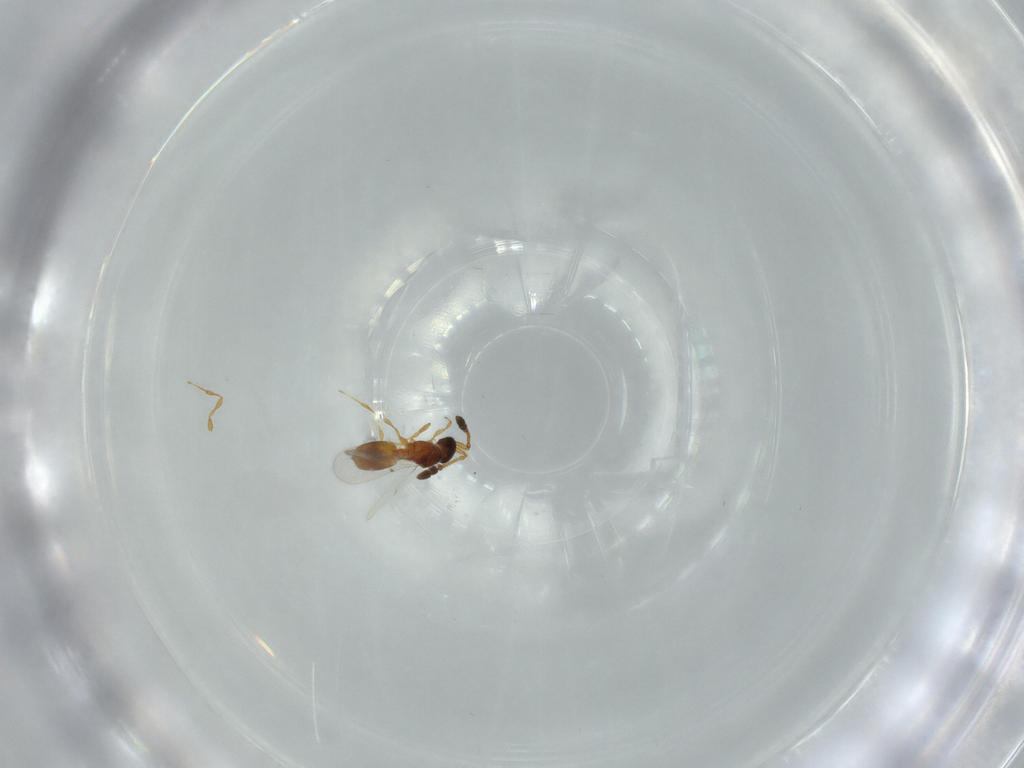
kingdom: Animalia
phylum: Arthropoda
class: Insecta
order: Hymenoptera
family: Diapriidae
